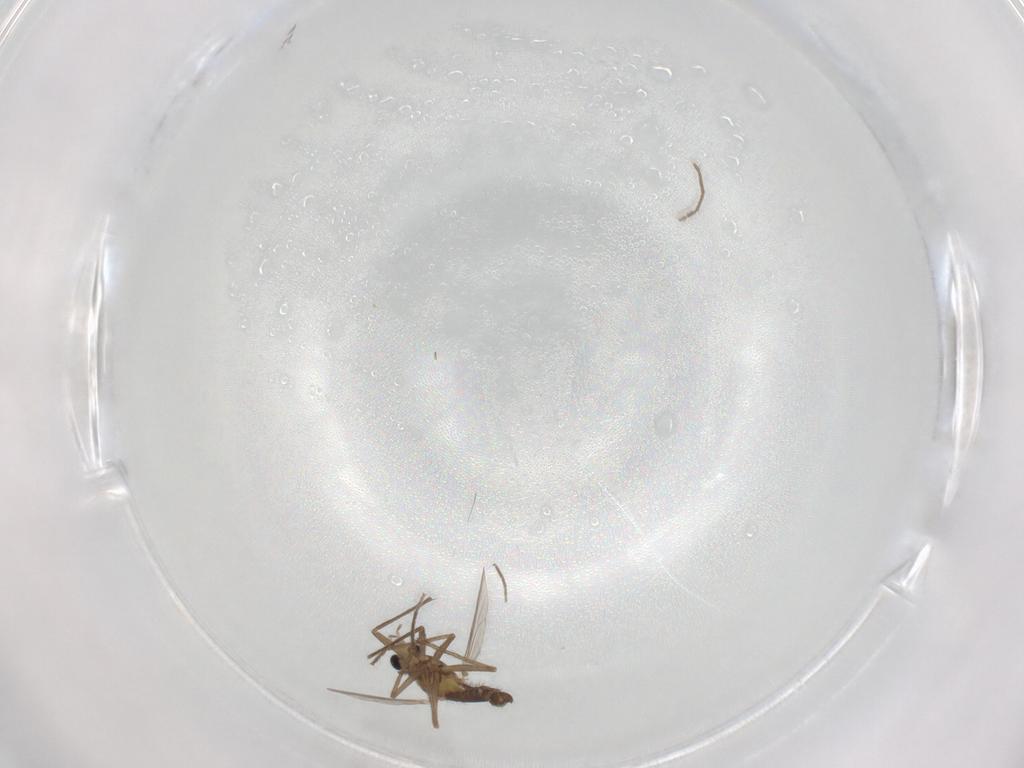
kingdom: Animalia
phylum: Arthropoda
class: Insecta
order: Diptera
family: Chironomidae
